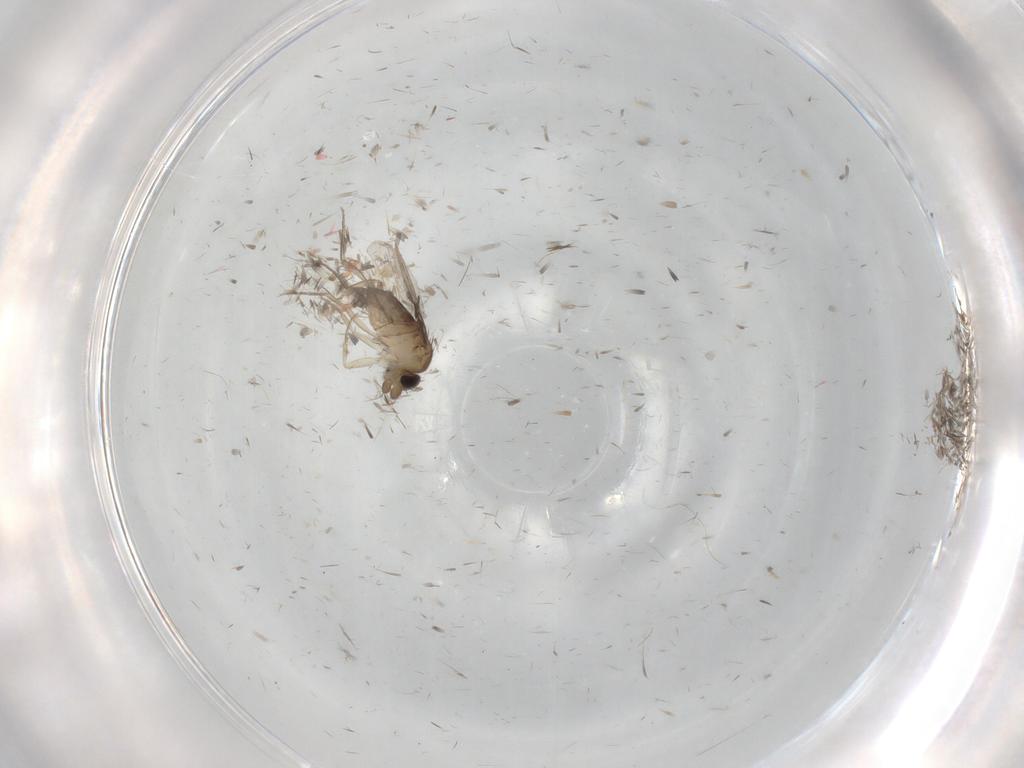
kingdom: Animalia
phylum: Arthropoda
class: Insecta
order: Diptera
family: Phoridae
